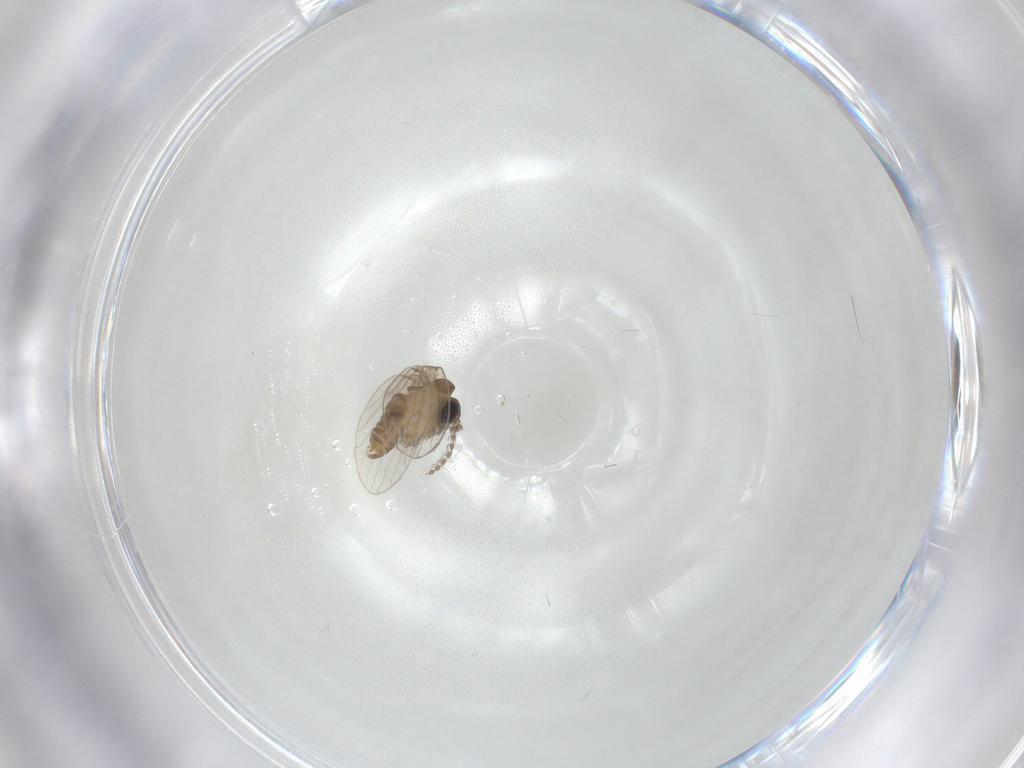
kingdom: Animalia
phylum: Arthropoda
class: Insecta
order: Diptera
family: Psychodidae
